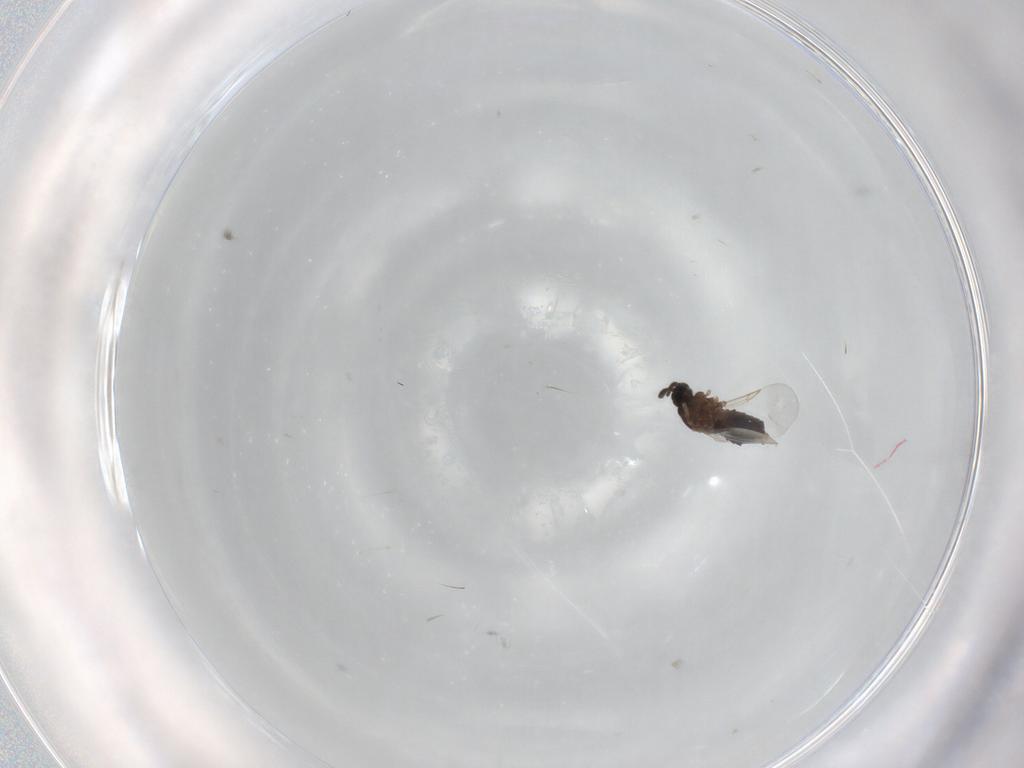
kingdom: Animalia
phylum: Arthropoda
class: Insecta
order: Diptera
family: Scatopsidae
